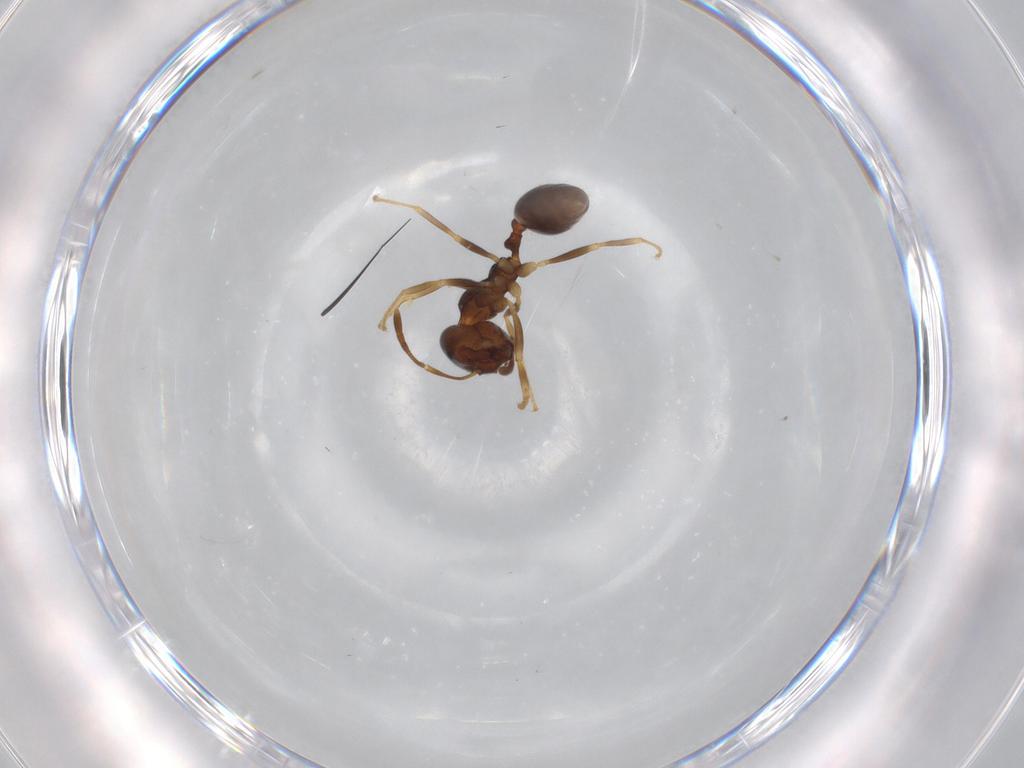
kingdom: Animalia
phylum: Arthropoda
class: Insecta
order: Hymenoptera
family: Formicidae
